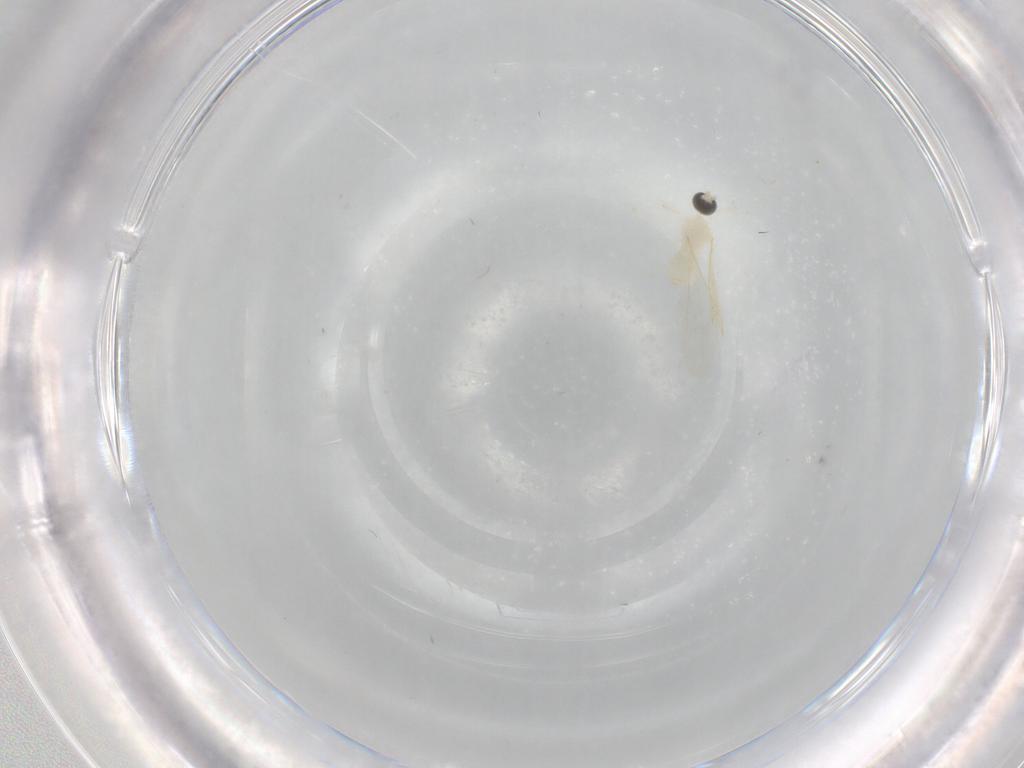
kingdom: Animalia
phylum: Arthropoda
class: Insecta
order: Diptera
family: Cecidomyiidae
